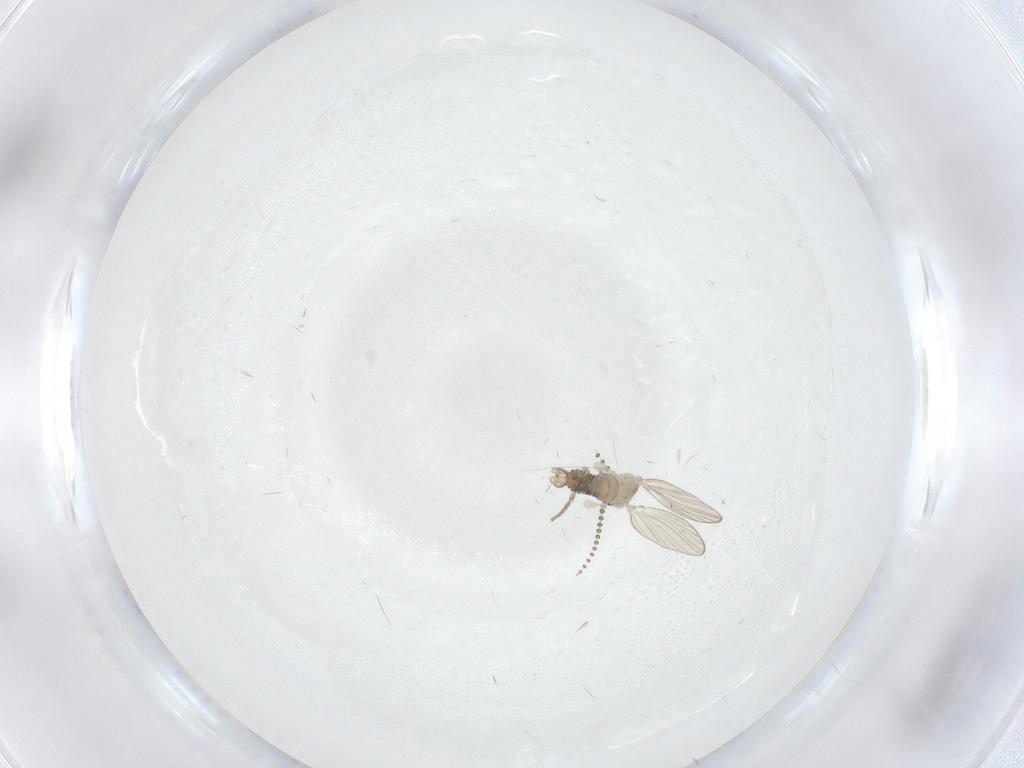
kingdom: Animalia
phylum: Arthropoda
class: Insecta
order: Diptera
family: Psychodidae
